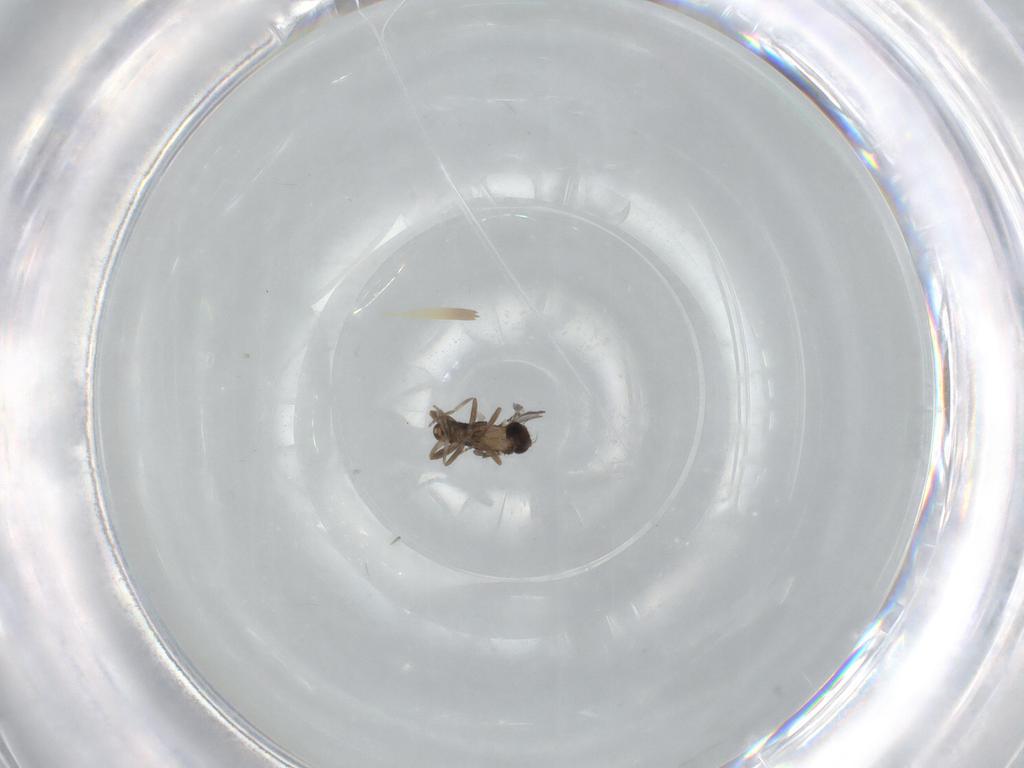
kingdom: Animalia
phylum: Arthropoda
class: Insecta
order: Diptera
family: Sciaridae
